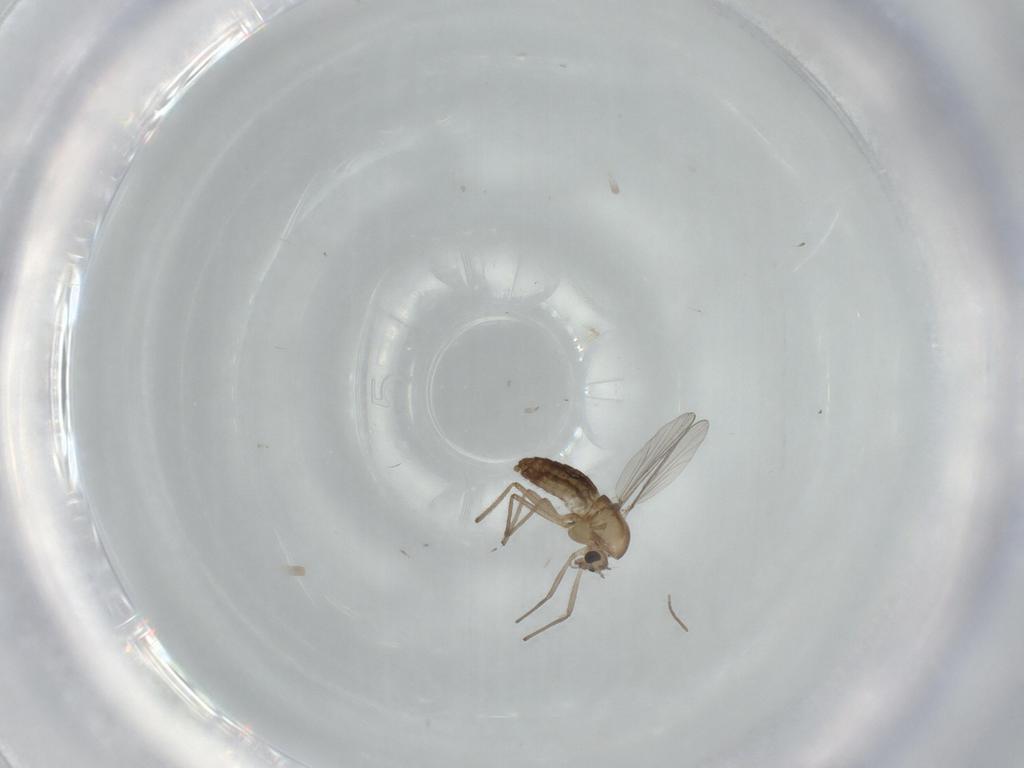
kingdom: Animalia
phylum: Arthropoda
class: Insecta
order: Diptera
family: Chironomidae
